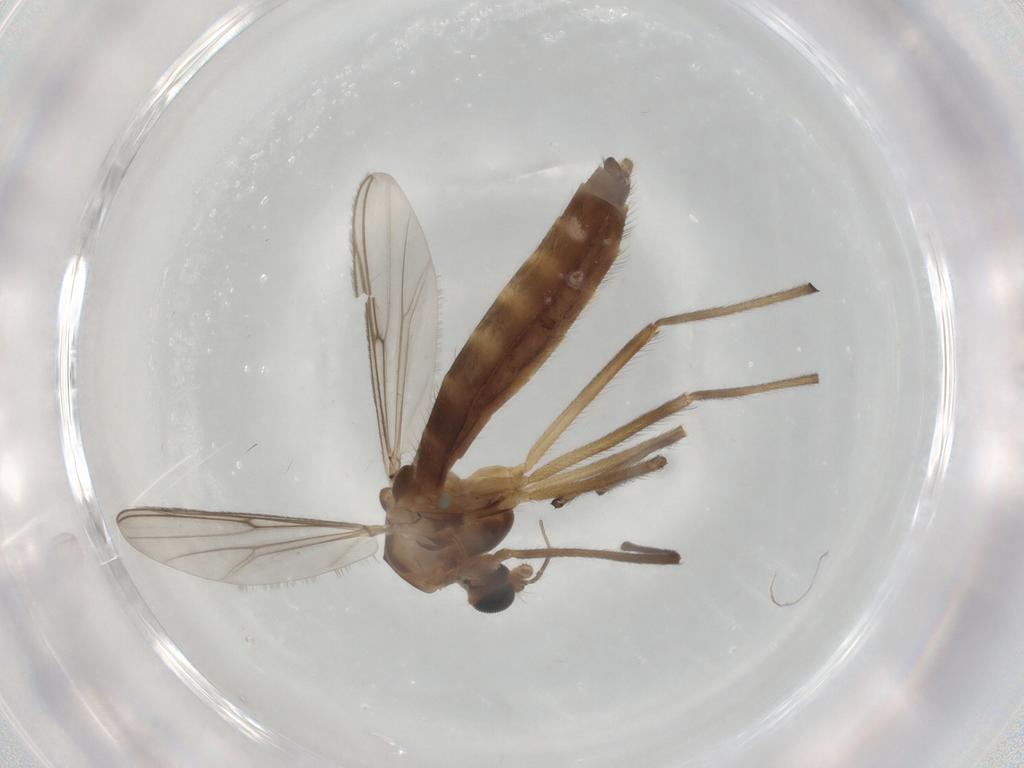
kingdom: Animalia
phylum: Arthropoda
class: Insecta
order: Diptera
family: Chironomidae
